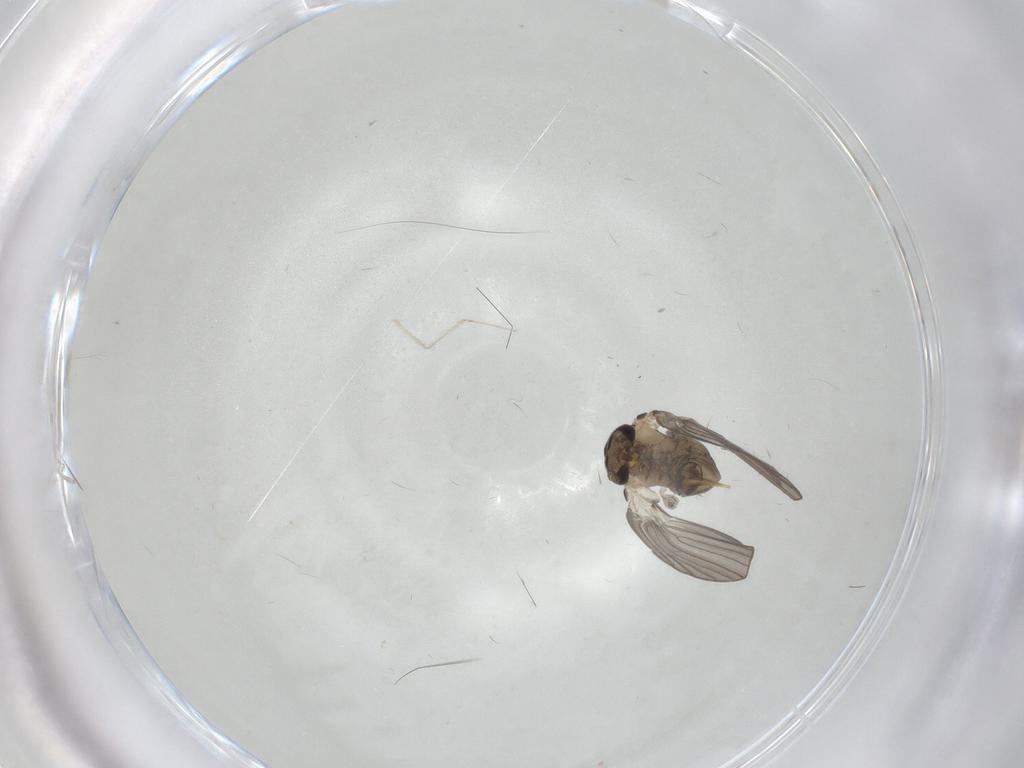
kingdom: Animalia
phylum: Arthropoda
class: Insecta
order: Diptera
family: Psychodidae
